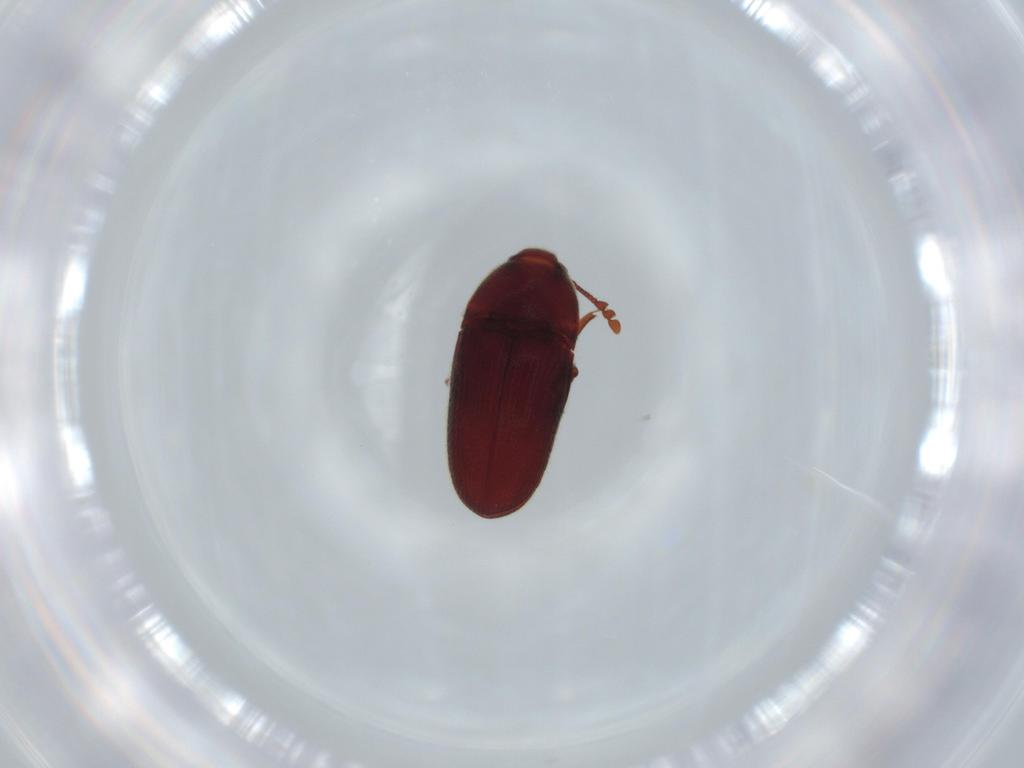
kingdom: Animalia
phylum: Arthropoda
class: Insecta
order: Coleoptera
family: Throscidae
